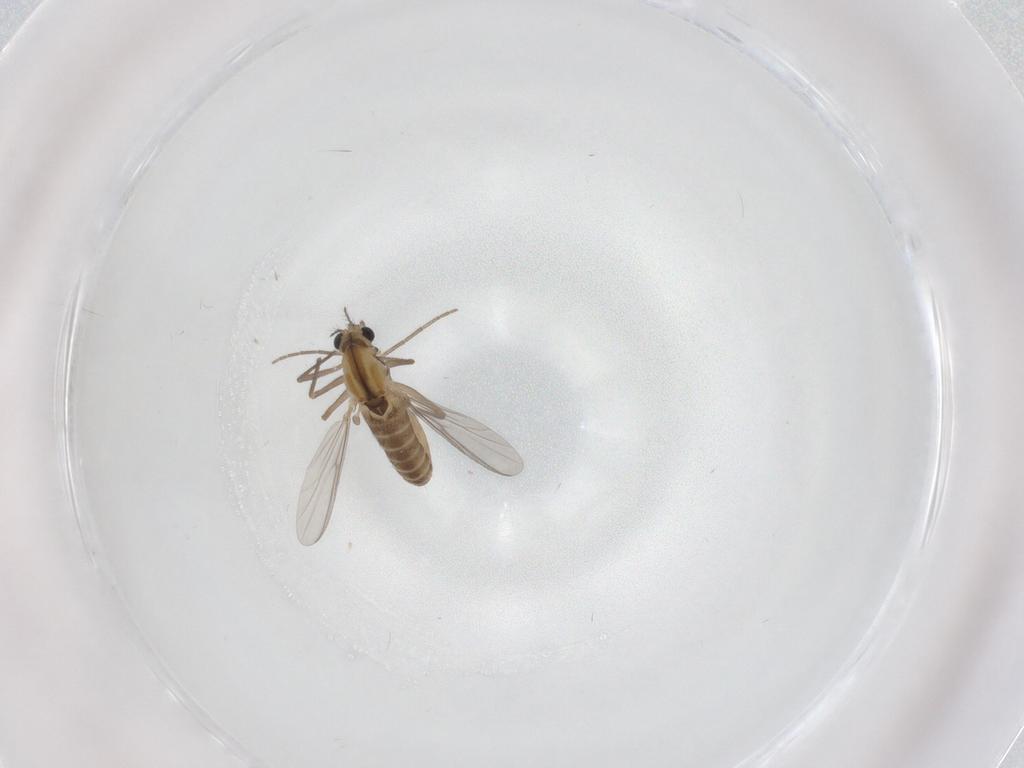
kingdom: Animalia
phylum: Arthropoda
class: Insecta
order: Diptera
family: Chironomidae
